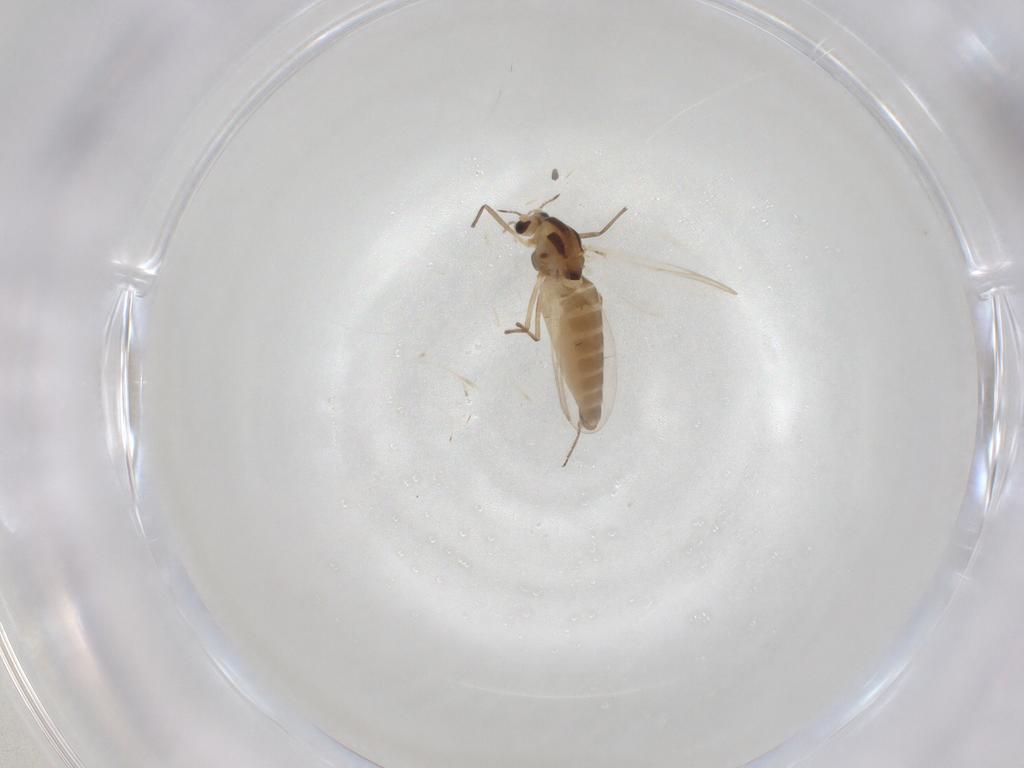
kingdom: Animalia
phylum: Arthropoda
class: Insecta
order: Diptera
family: Chironomidae
